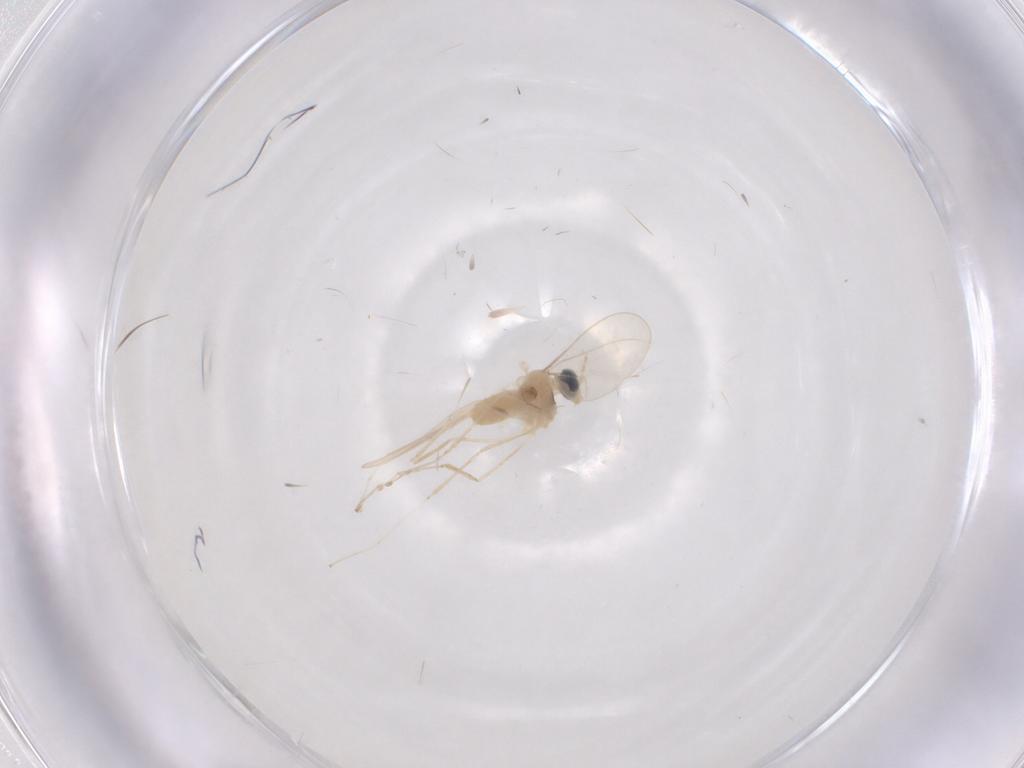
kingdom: Animalia
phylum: Arthropoda
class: Insecta
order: Diptera
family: Cecidomyiidae
